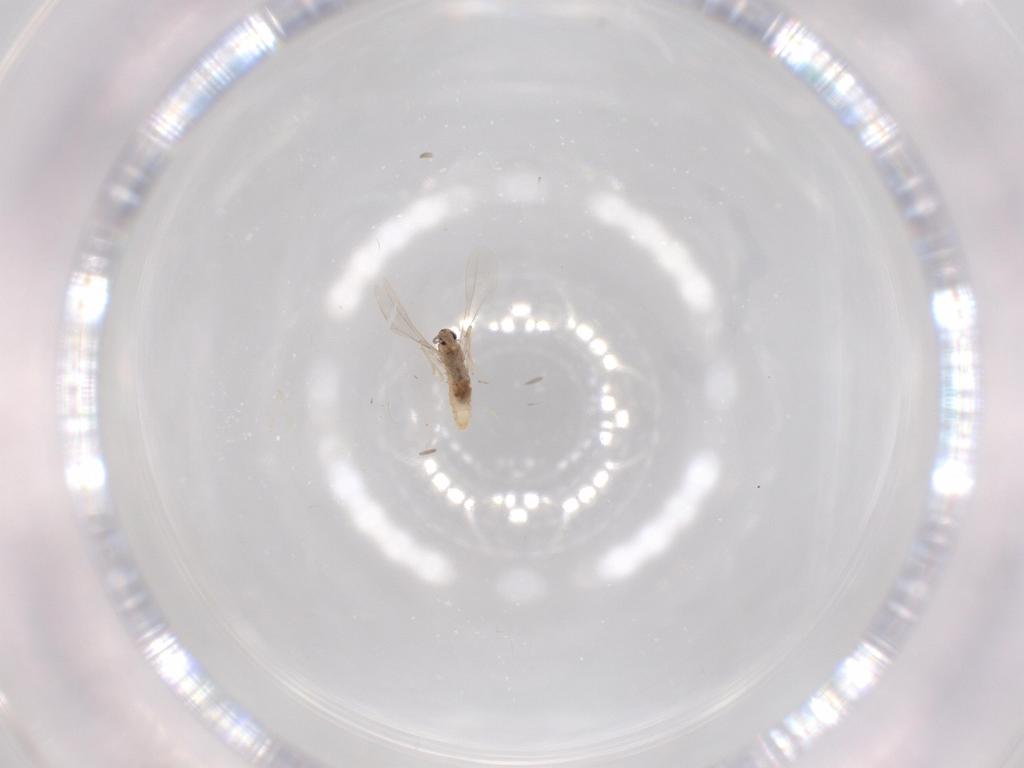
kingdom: Animalia
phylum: Arthropoda
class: Insecta
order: Diptera
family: Cecidomyiidae
